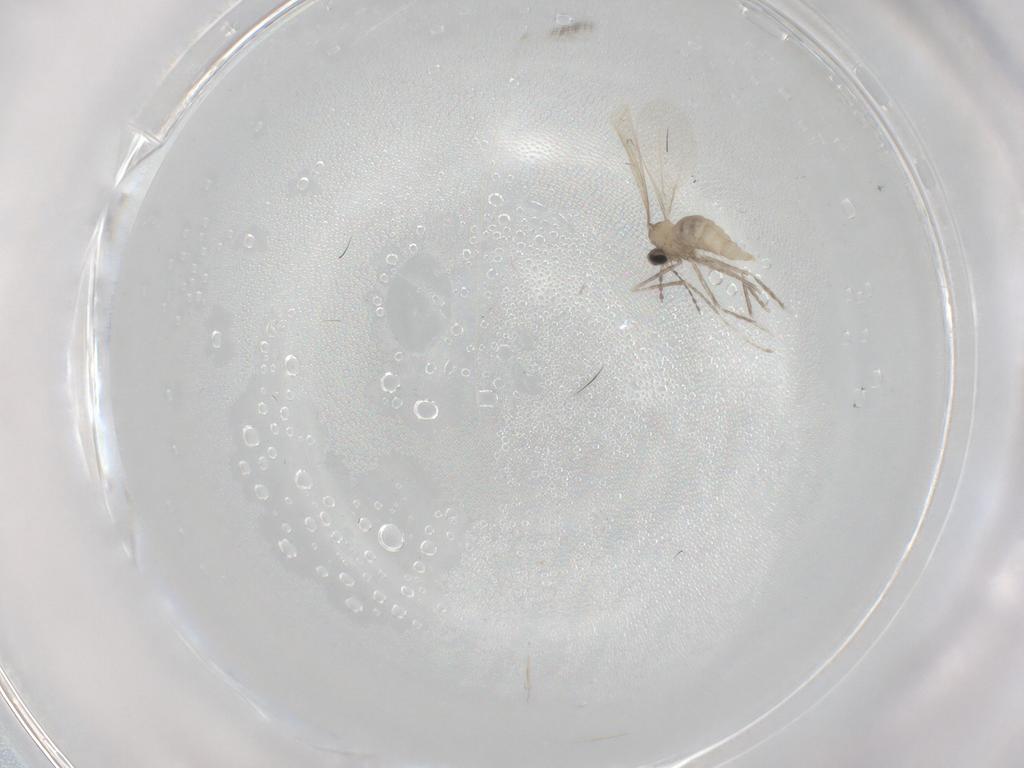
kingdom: Animalia
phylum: Arthropoda
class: Insecta
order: Diptera
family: Cecidomyiidae
